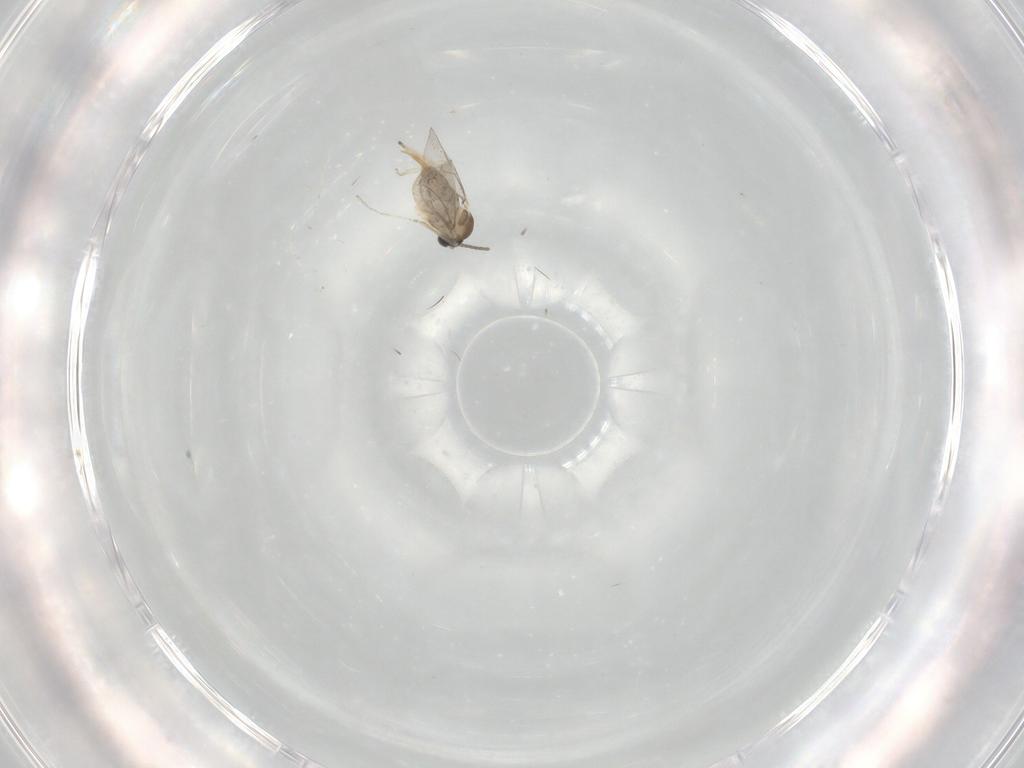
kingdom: Animalia
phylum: Arthropoda
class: Insecta
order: Diptera
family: Cecidomyiidae
